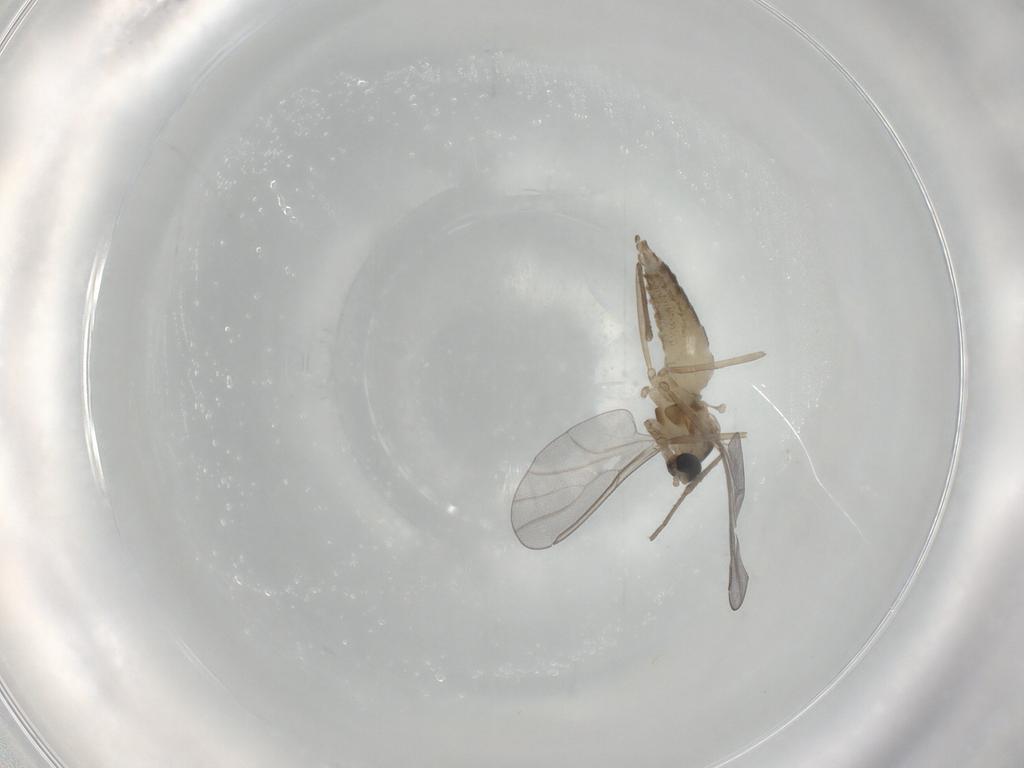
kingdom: Animalia
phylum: Arthropoda
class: Insecta
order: Diptera
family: Cecidomyiidae
